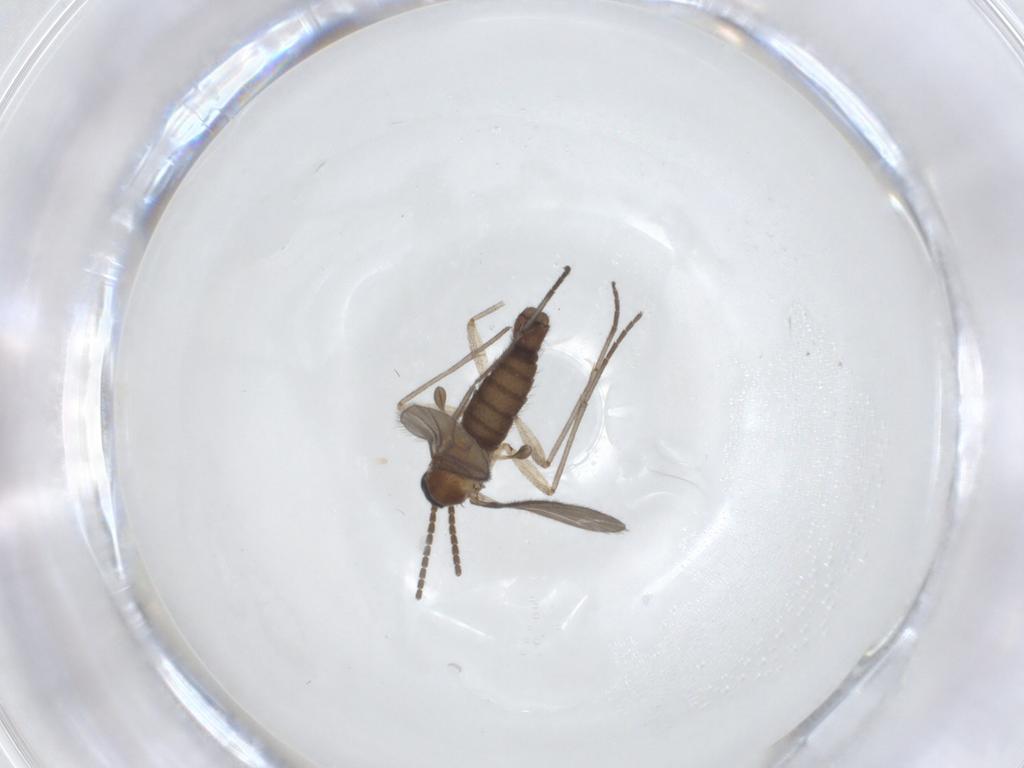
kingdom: Animalia
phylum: Arthropoda
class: Insecta
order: Diptera
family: Sciaridae
